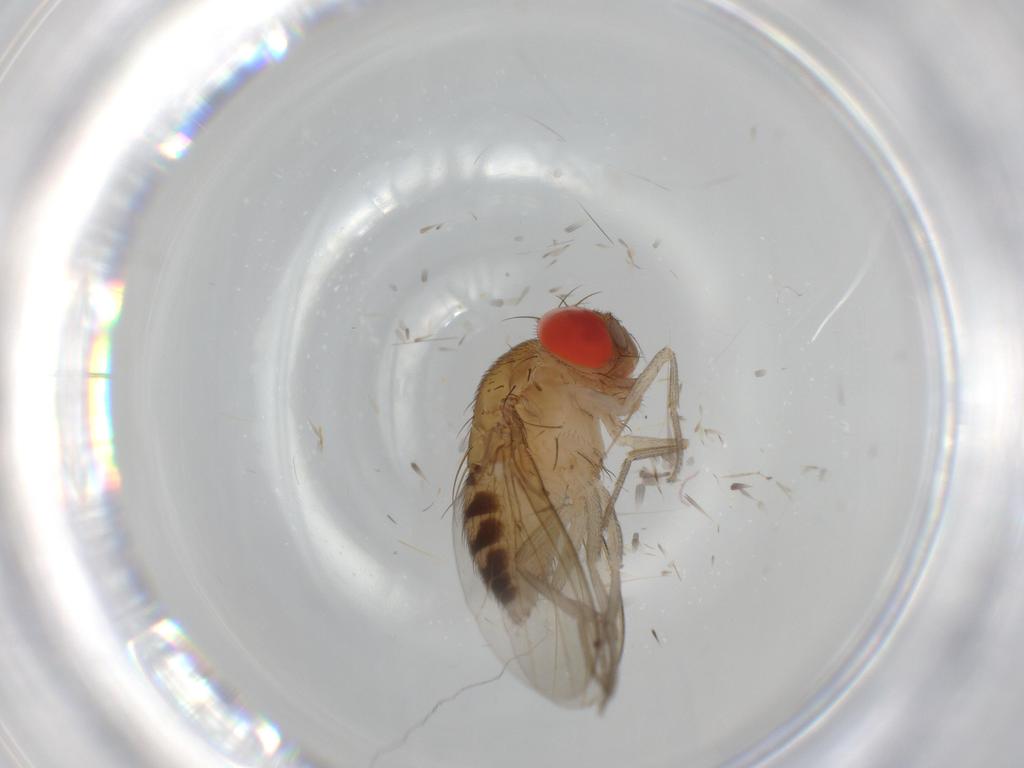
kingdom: Animalia
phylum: Arthropoda
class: Insecta
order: Diptera
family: Drosophilidae
